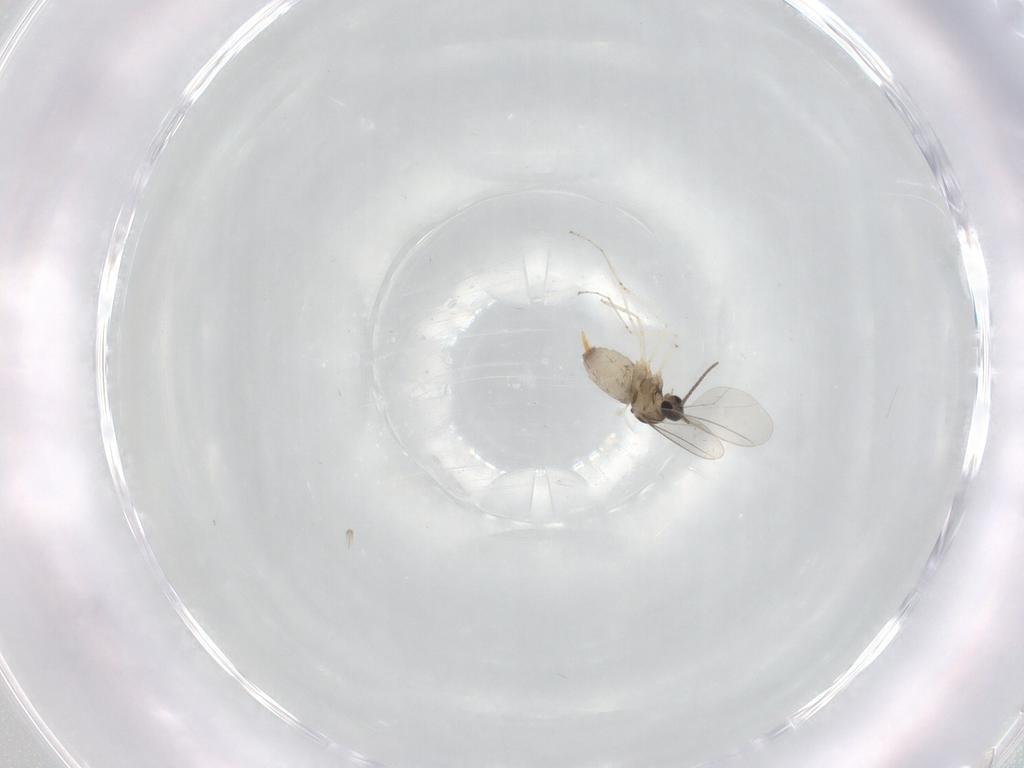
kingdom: Animalia
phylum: Arthropoda
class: Insecta
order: Diptera
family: Cecidomyiidae
